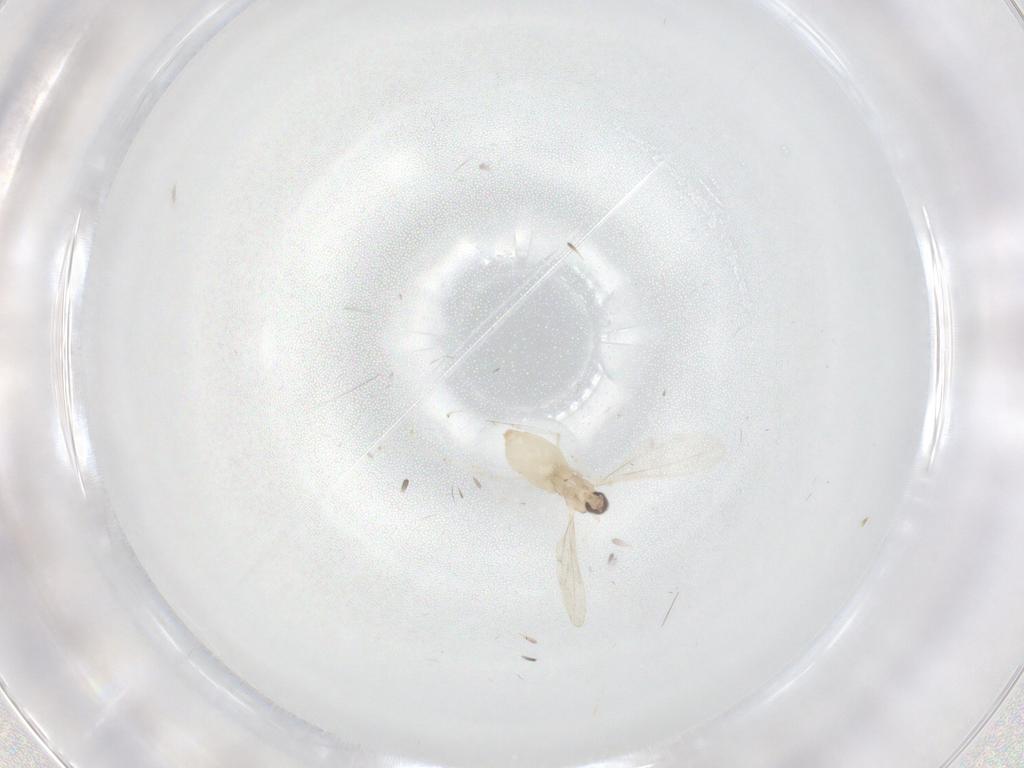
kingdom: Animalia
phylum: Arthropoda
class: Insecta
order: Diptera
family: Cecidomyiidae
